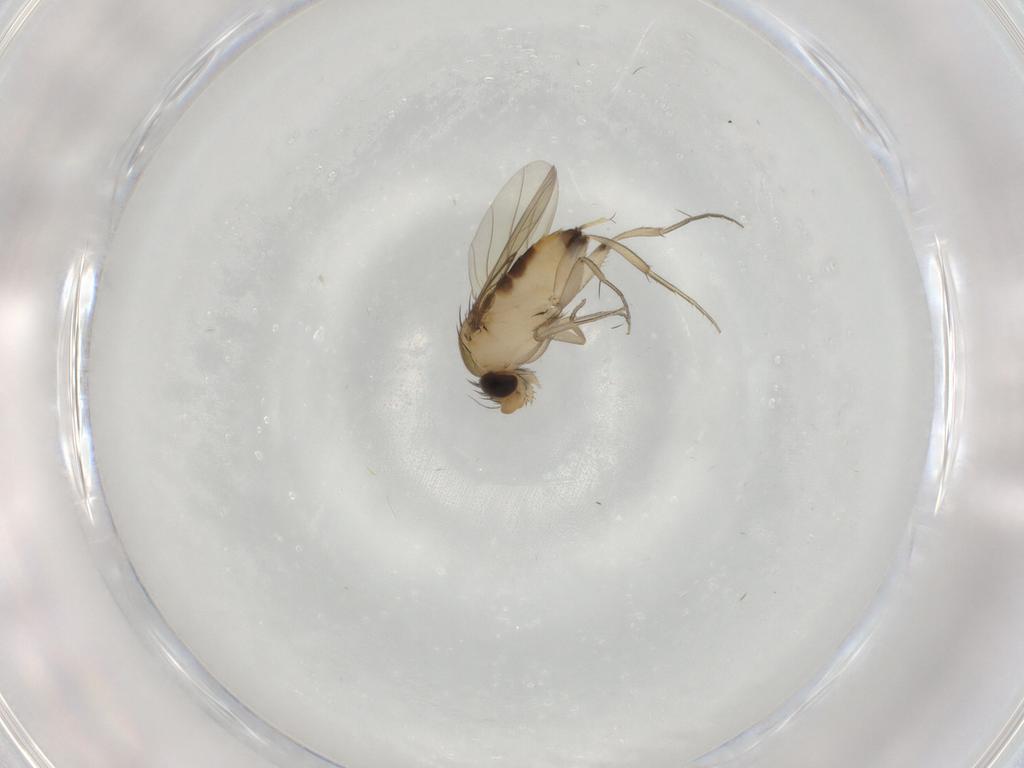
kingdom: Animalia
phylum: Arthropoda
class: Insecta
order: Diptera
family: Phoridae
